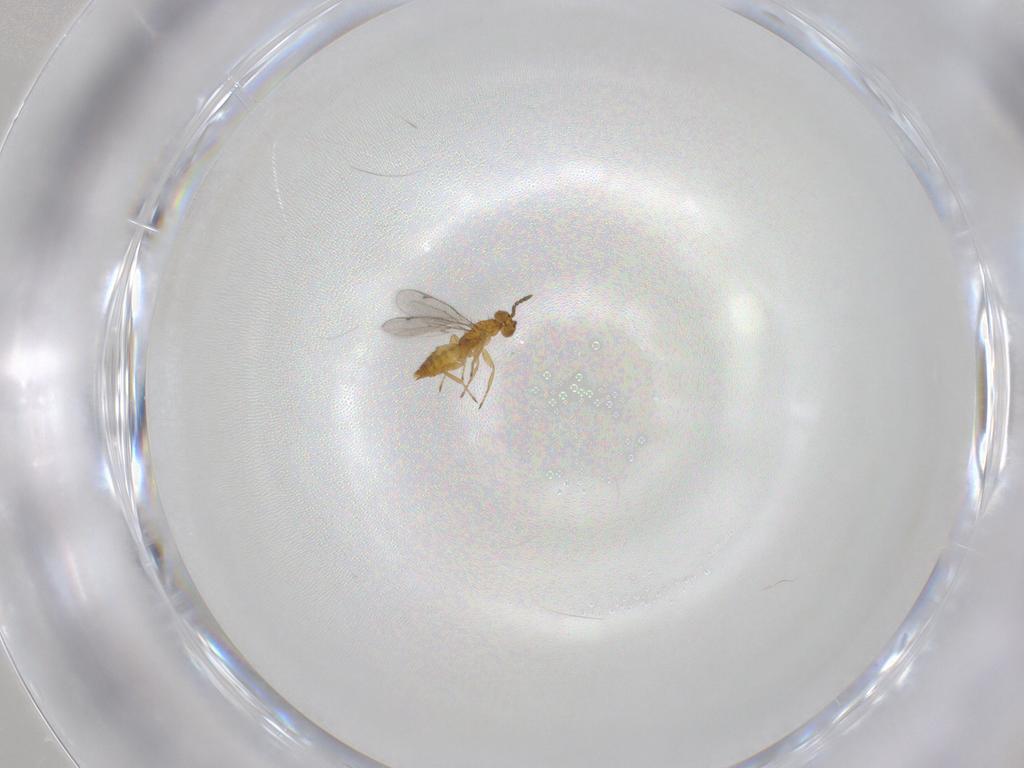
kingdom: Animalia
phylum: Arthropoda
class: Insecta
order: Hymenoptera
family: Eulophidae
